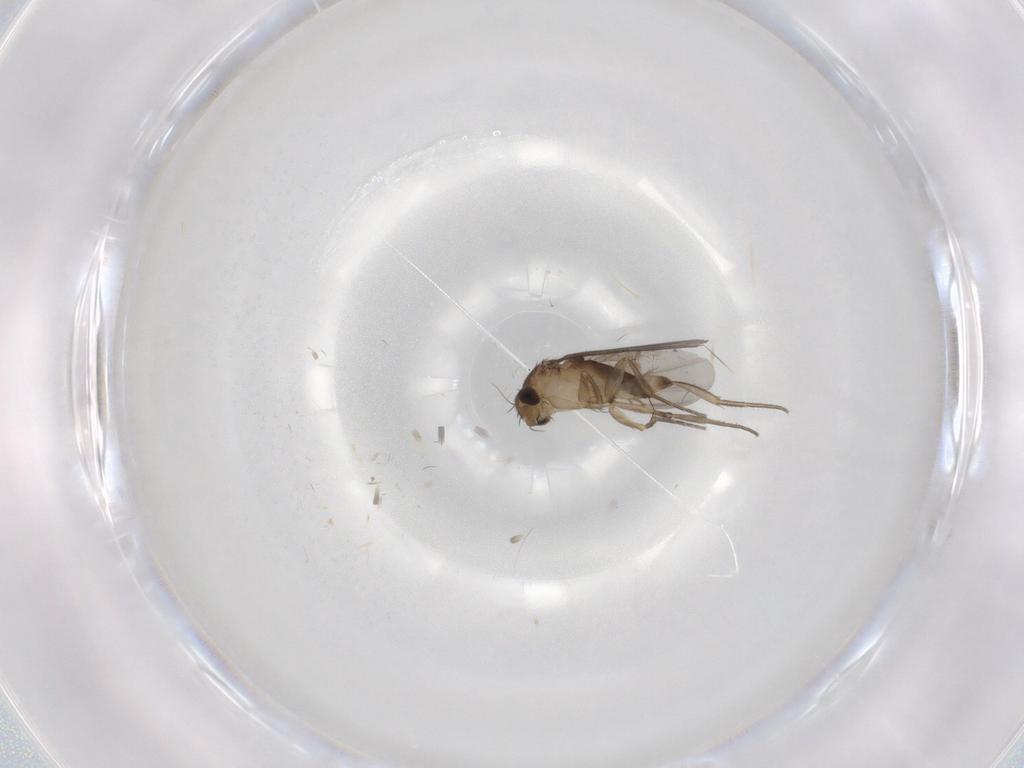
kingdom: Animalia
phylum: Arthropoda
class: Insecta
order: Diptera
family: Phoridae
